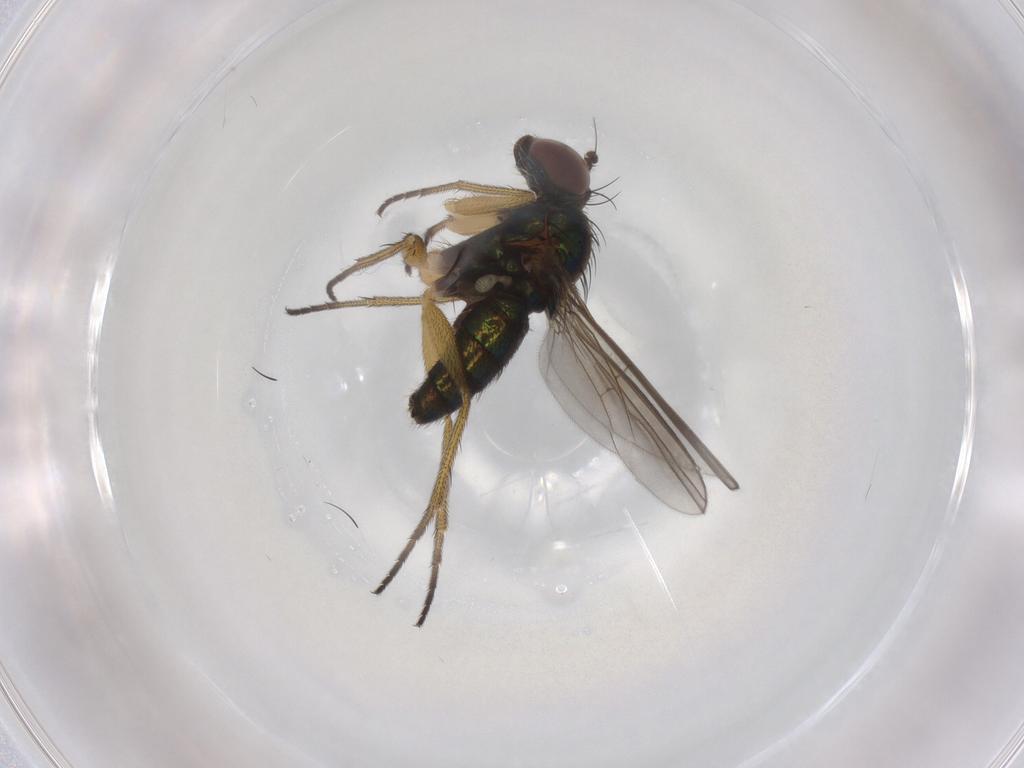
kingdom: Animalia
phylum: Arthropoda
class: Insecta
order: Diptera
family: Dolichopodidae
